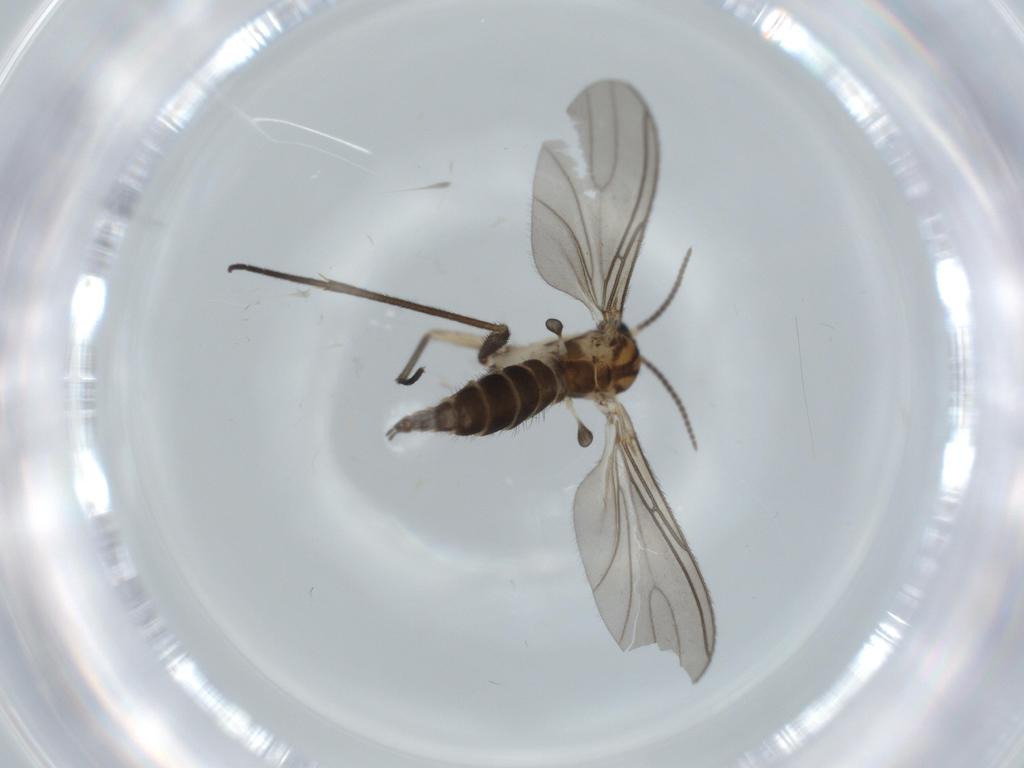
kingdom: Animalia
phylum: Arthropoda
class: Insecta
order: Diptera
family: Sciaridae
